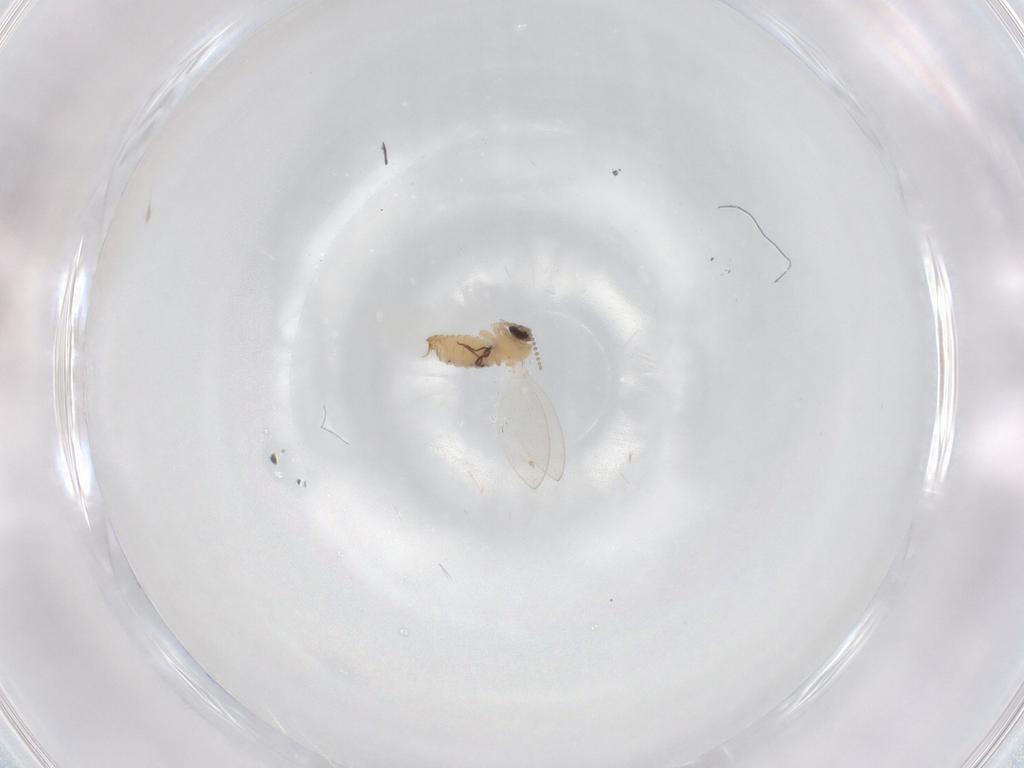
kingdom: Animalia
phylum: Arthropoda
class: Insecta
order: Diptera
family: Psychodidae
